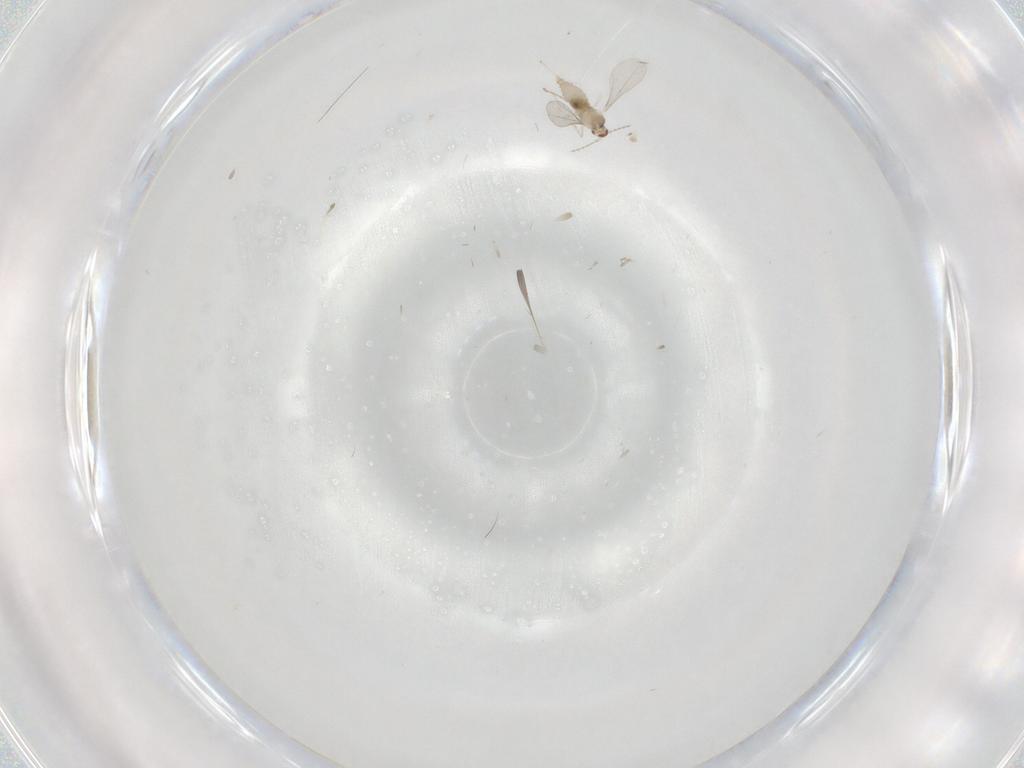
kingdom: Animalia
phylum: Arthropoda
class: Insecta
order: Diptera
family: Cecidomyiidae
